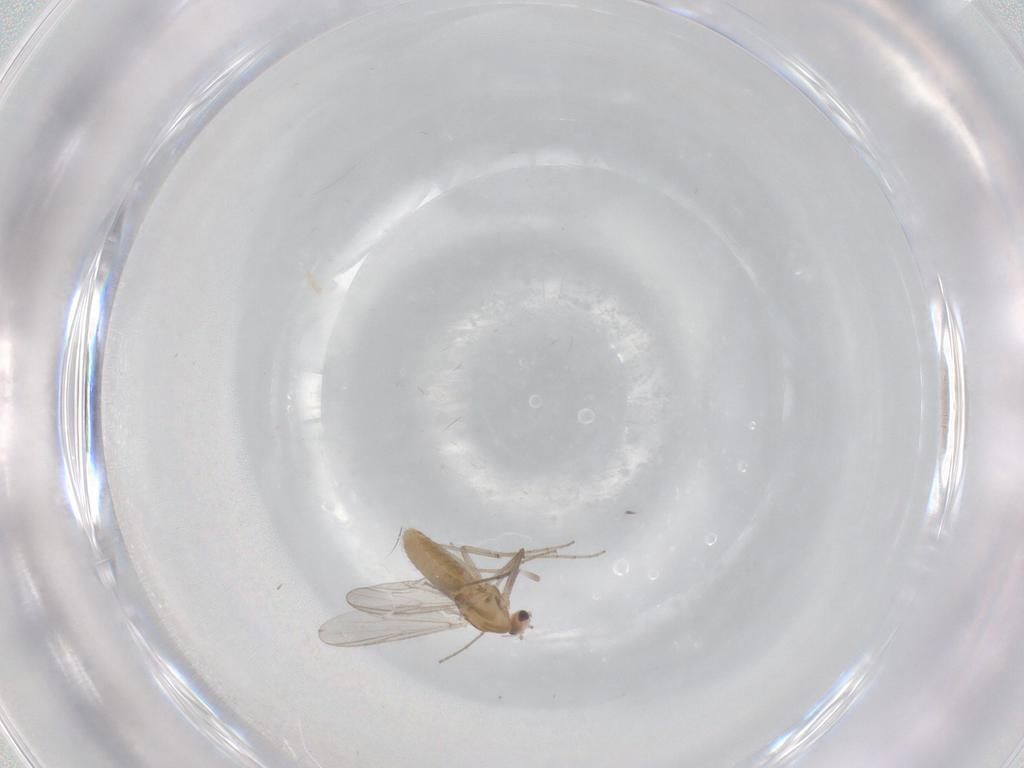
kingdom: Animalia
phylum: Arthropoda
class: Insecta
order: Diptera
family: Chironomidae
